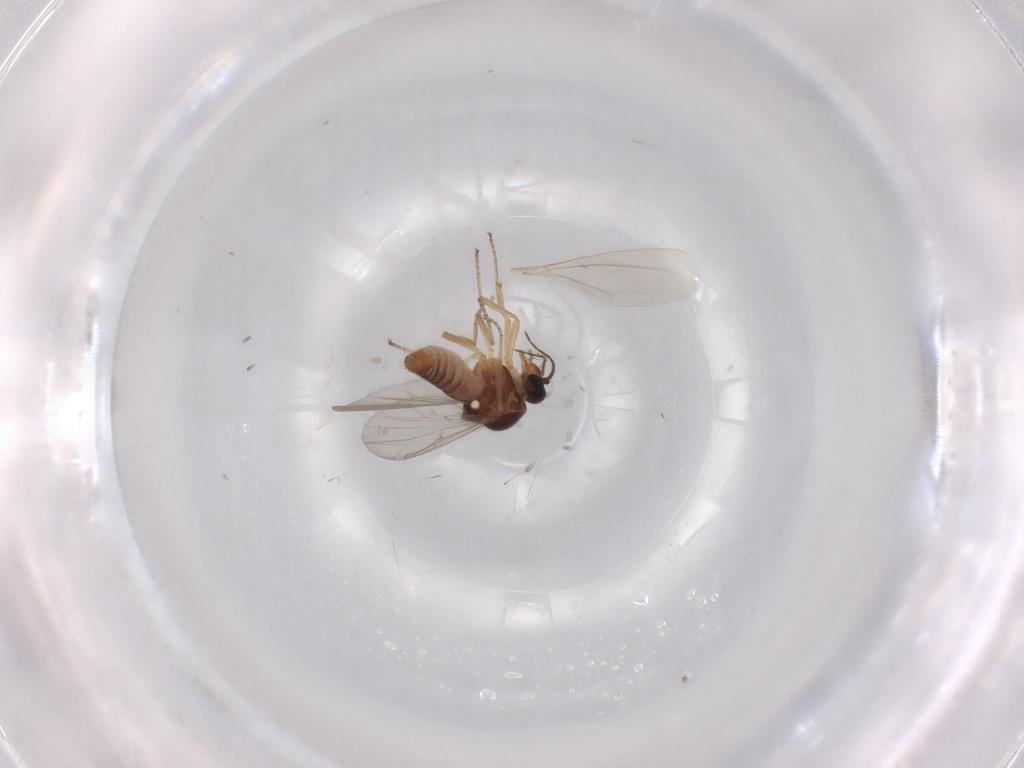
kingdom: Animalia
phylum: Arthropoda
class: Insecta
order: Diptera
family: Ceratopogonidae
